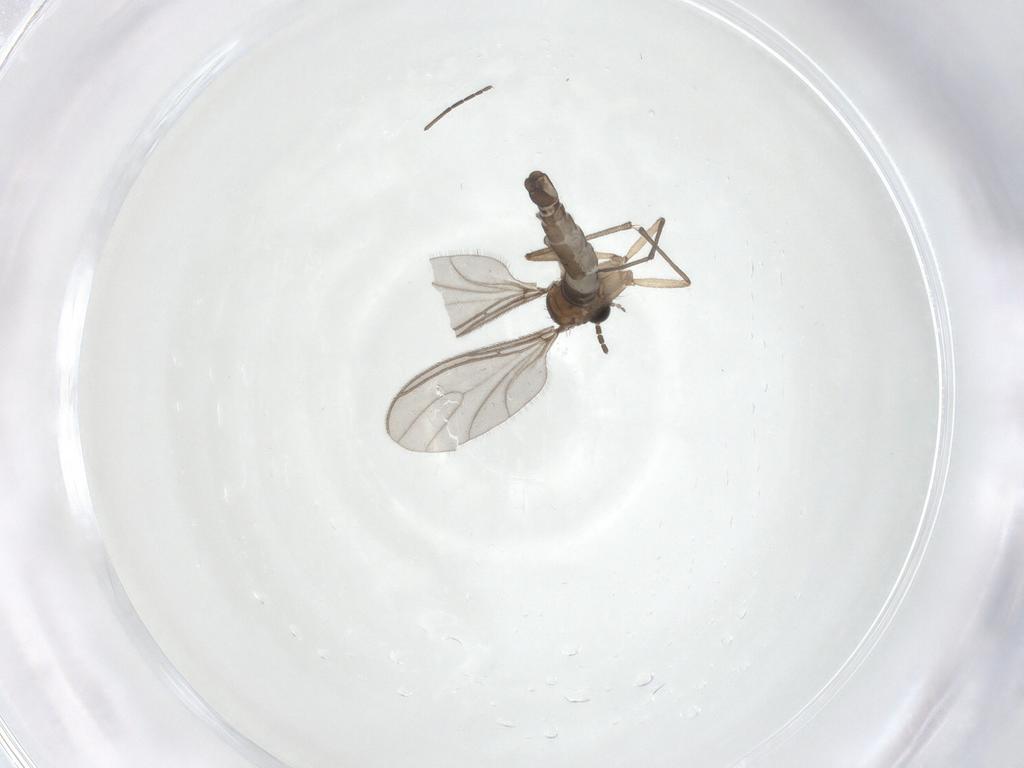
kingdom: Animalia
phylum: Arthropoda
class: Insecta
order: Diptera
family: Sciaridae
